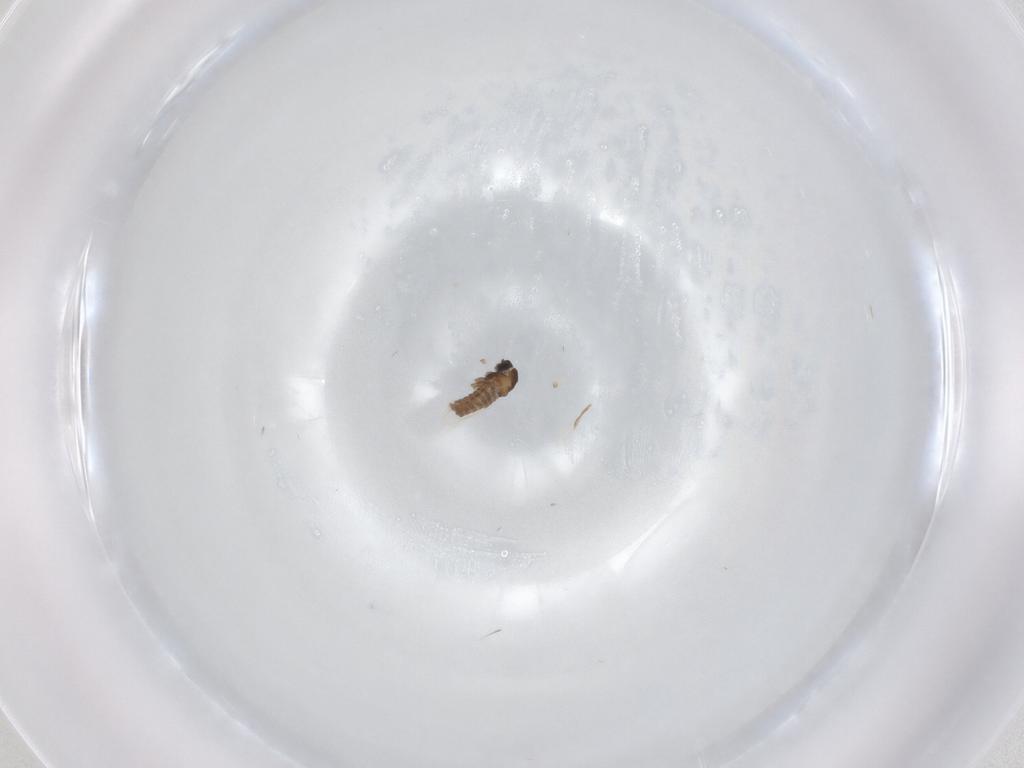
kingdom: Animalia
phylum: Arthropoda
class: Insecta
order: Diptera
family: Cecidomyiidae
